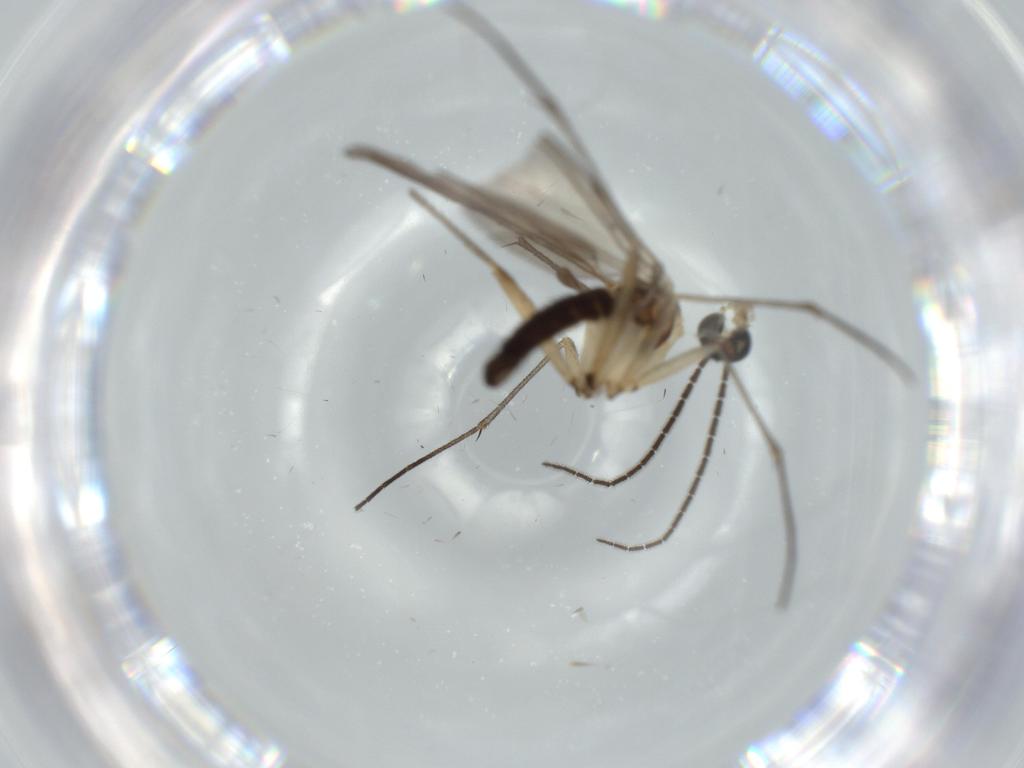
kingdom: Animalia
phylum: Arthropoda
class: Insecta
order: Diptera
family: Sciaridae
